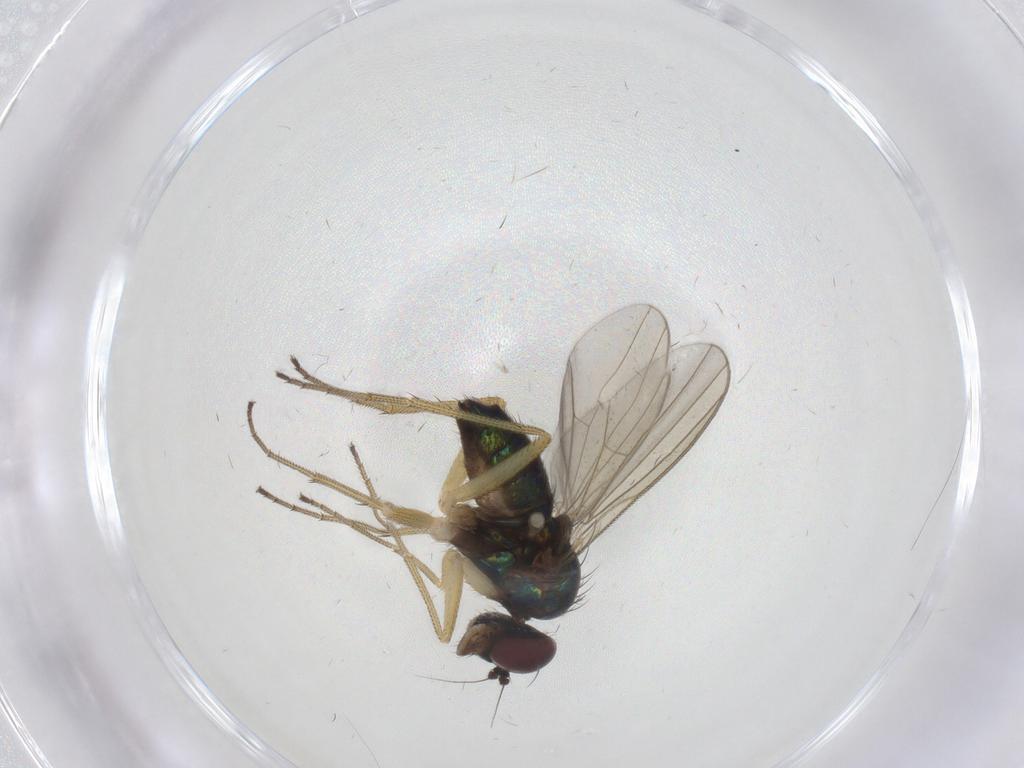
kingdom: Animalia
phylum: Arthropoda
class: Insecta
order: Diptera
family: Dolichopodidae
